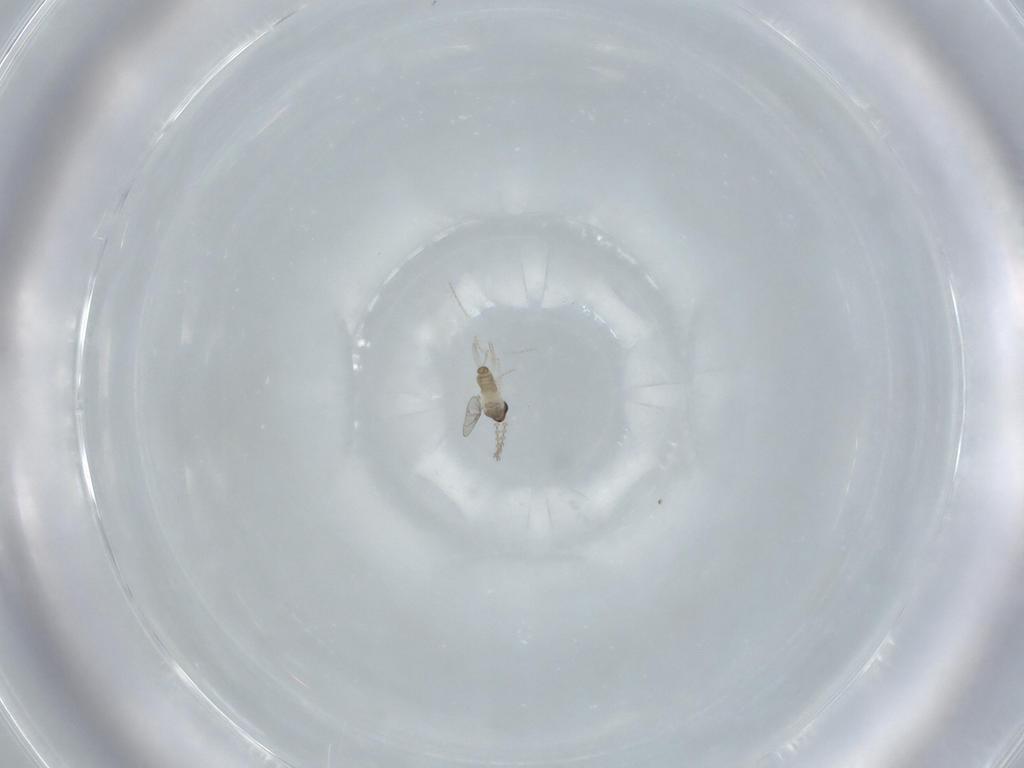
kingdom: Animalia
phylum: Arthropoda
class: Insecta
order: Diptera
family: Cecidomyiidae
